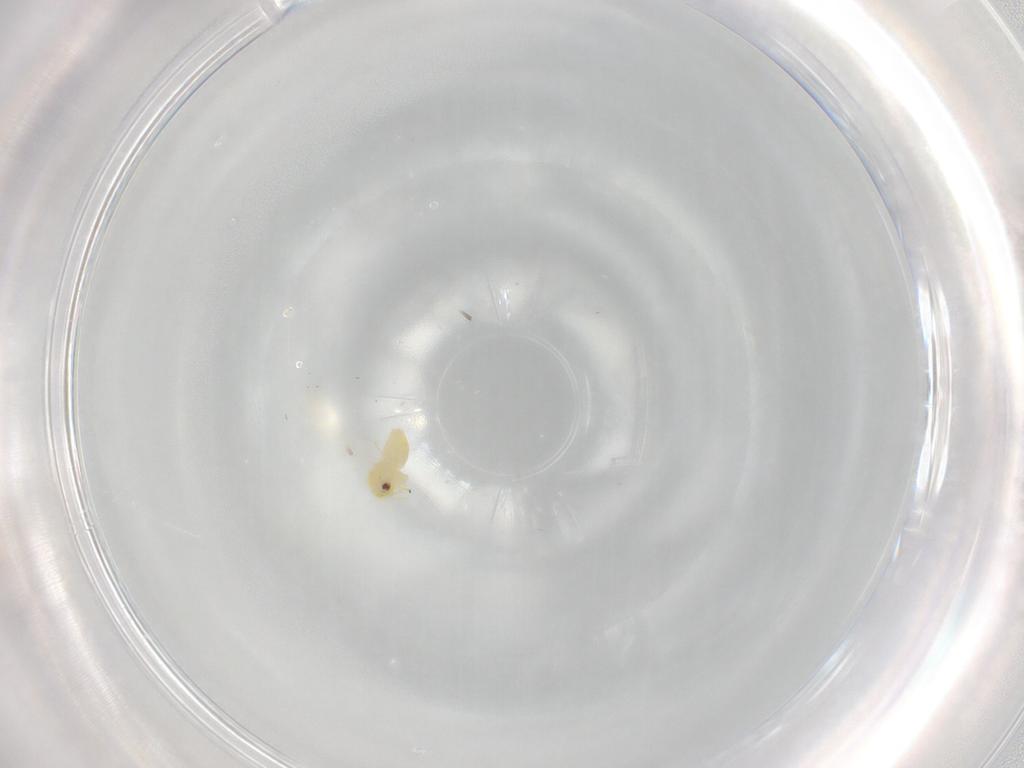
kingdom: Animalia
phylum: Arthropoda
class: Insecta
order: Hemiptera
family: Aleyrodidae
